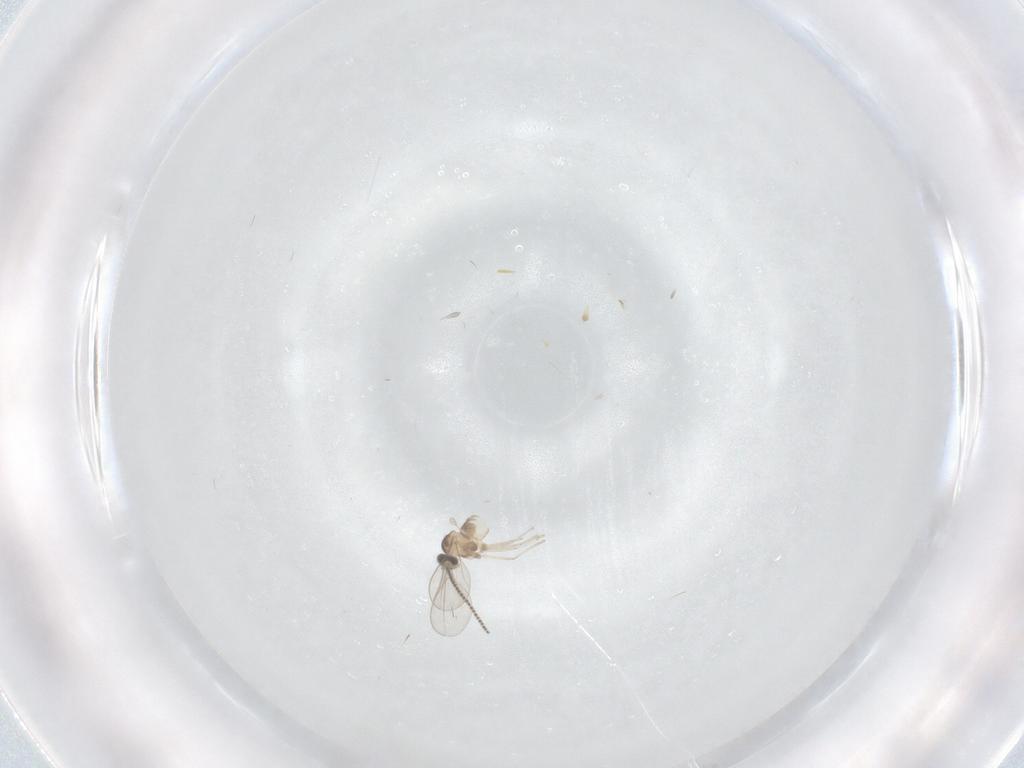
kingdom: Animalia
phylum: Arthropoda
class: Insecta
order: Diptera
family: Cecidomyiidae
